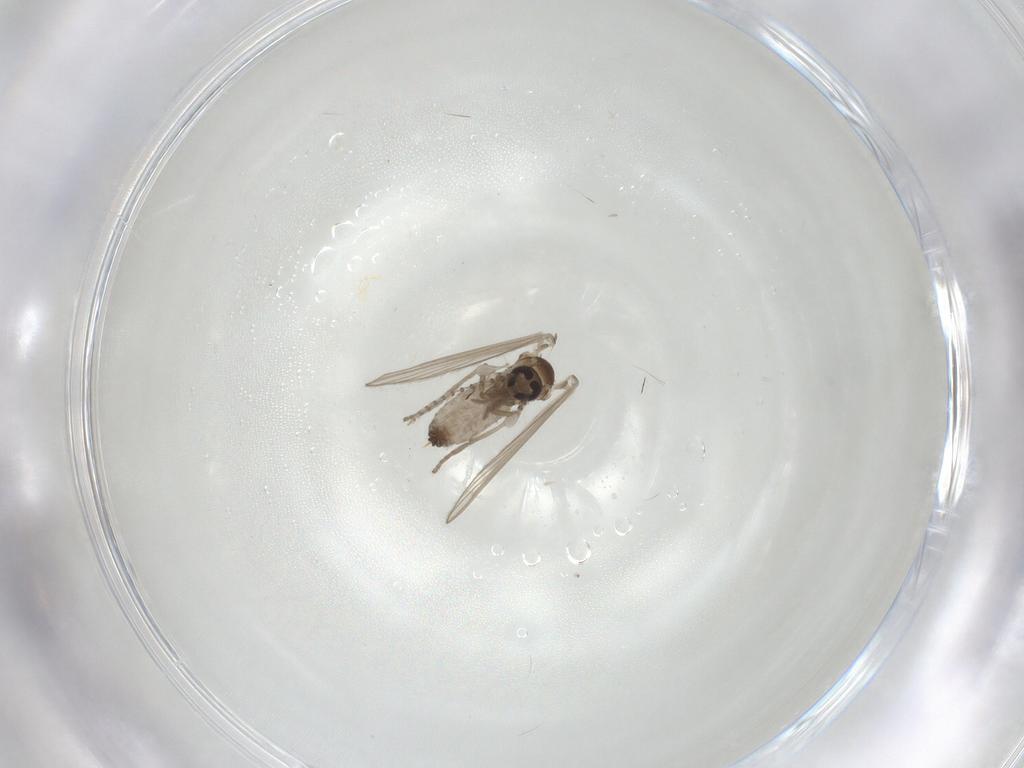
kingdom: Animalia
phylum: Arthropoda
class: Insecta
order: Diptera
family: Psychodidae
